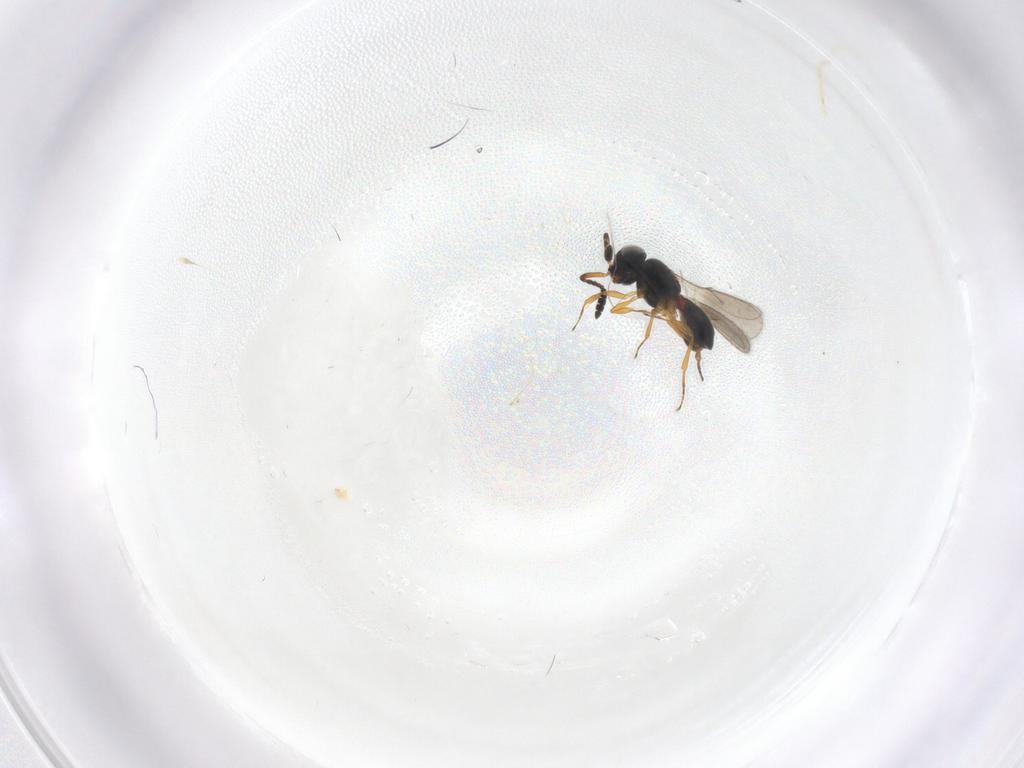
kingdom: Animalia
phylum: Arthropoda
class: Insecta
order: Hymenoptera
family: Scelionidae
